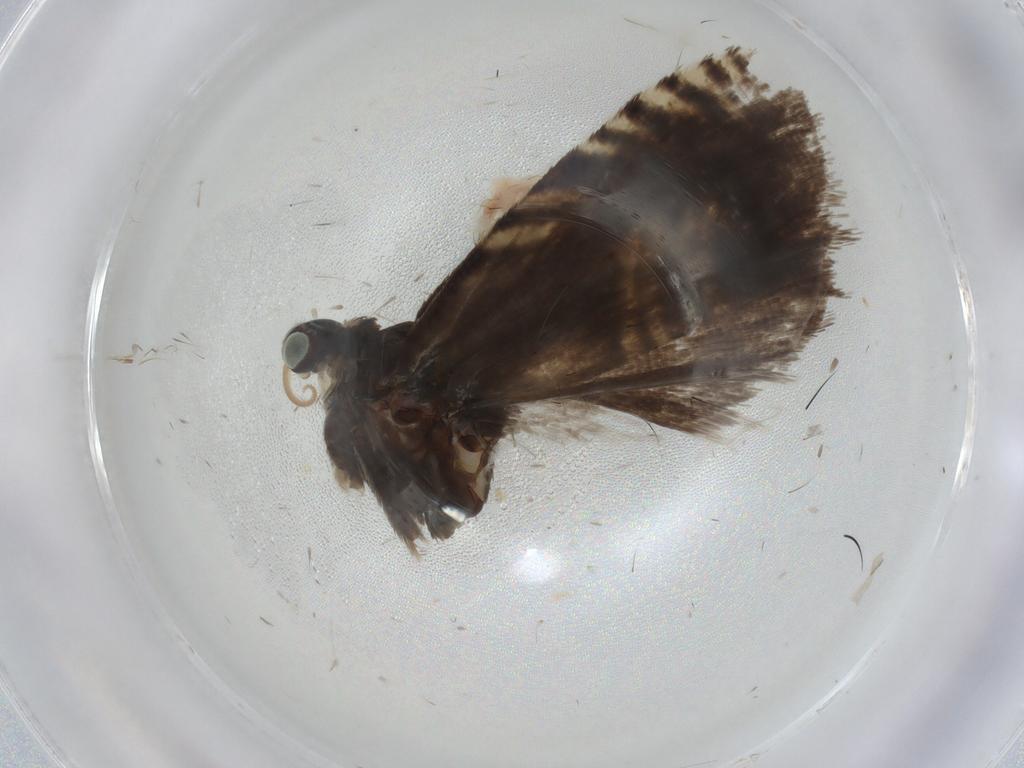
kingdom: Animalia
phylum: Arthropoda
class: Insecta
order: Lepidoptera
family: Tortricidae
